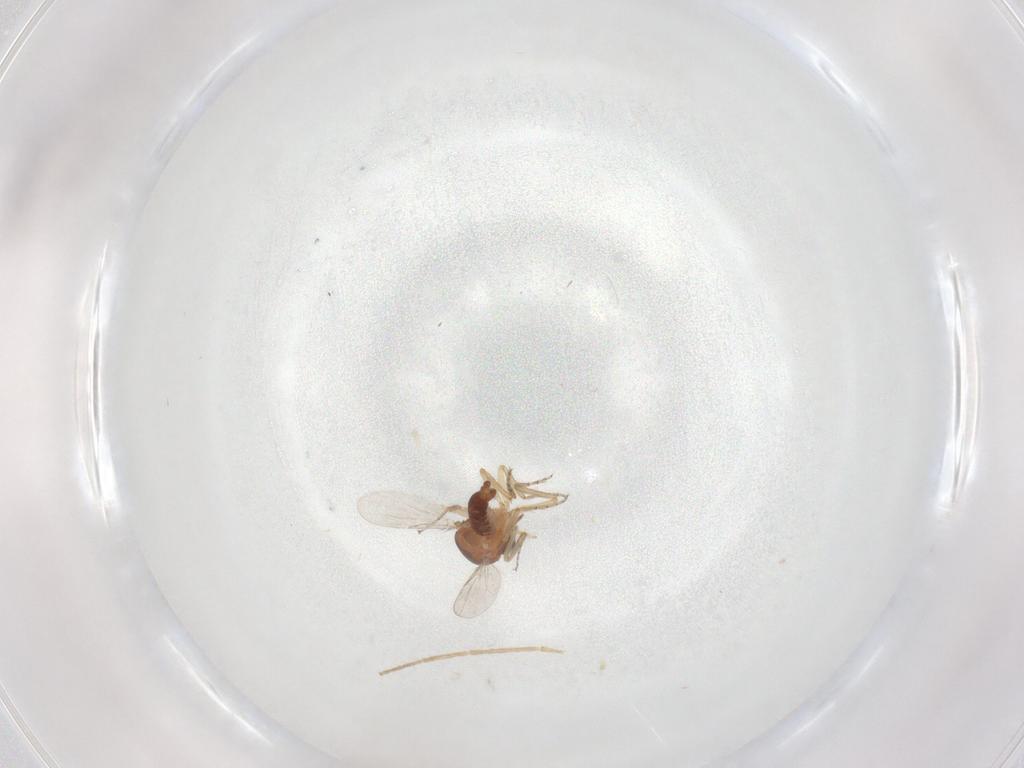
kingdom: Animalia
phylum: Arthropoda
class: Insecta
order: Diptera
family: Ceratopogonidae
